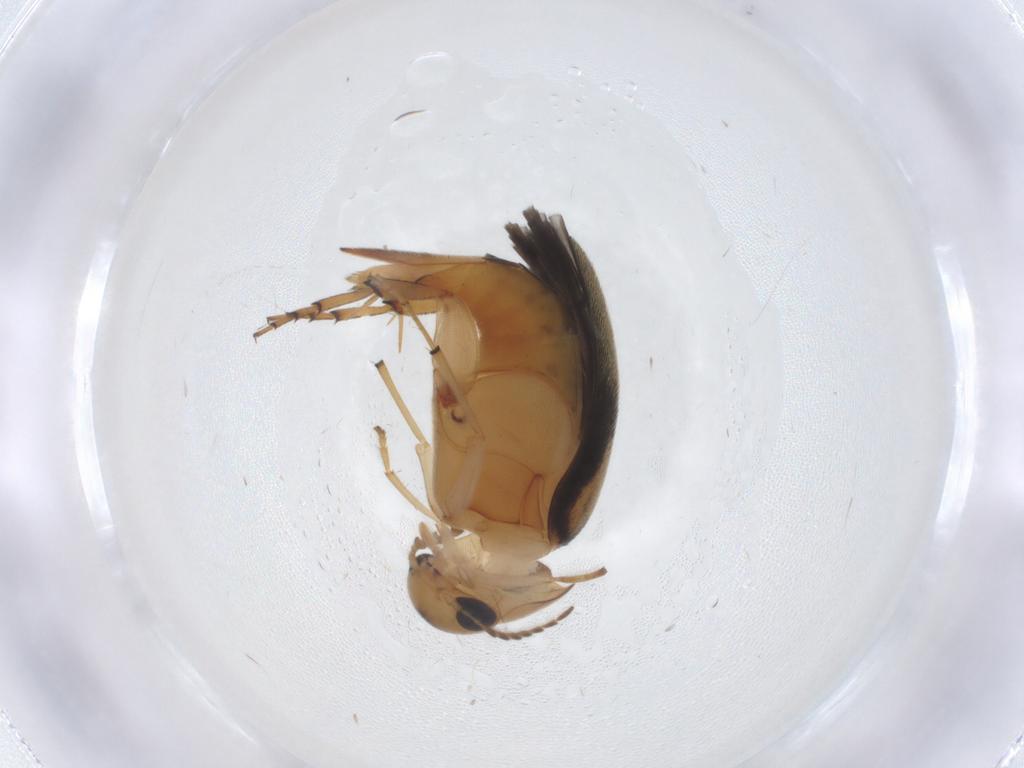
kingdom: Animalia
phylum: Arthropoda
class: Insecta
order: Coleoptera
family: Mordellidae
